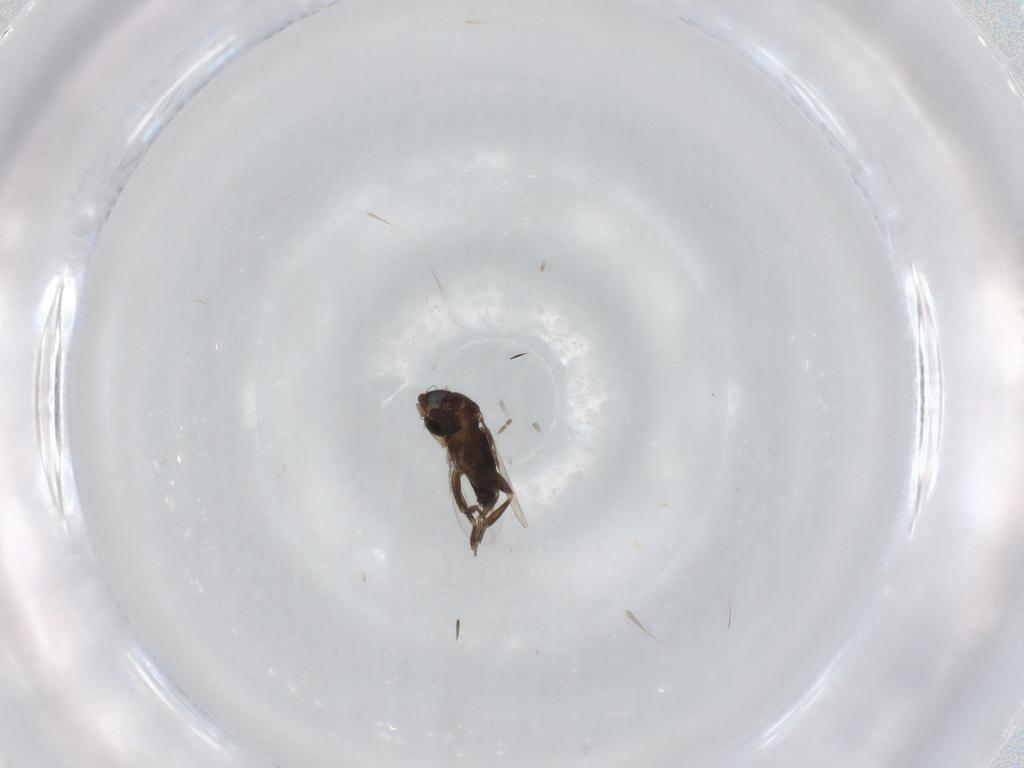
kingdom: Animalia
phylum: Arthropoda
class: Insecta
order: Diptera
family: Phoridae
